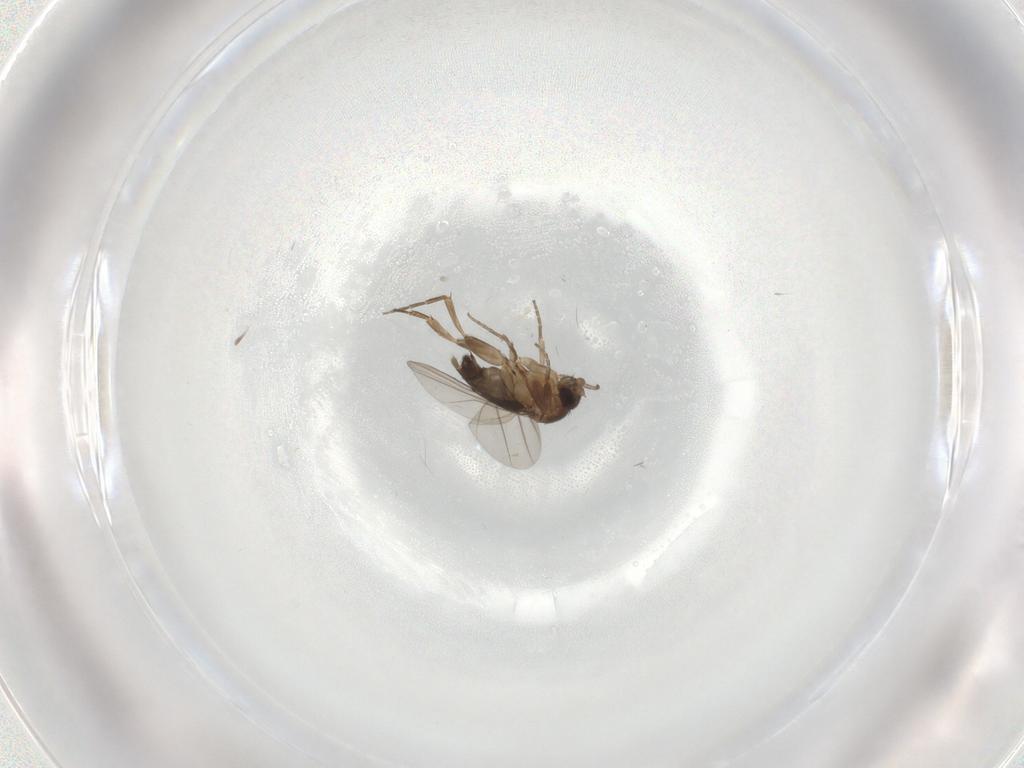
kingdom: Animalia
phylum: Arthropoda
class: Insecta
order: Diptera
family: Phoridae
